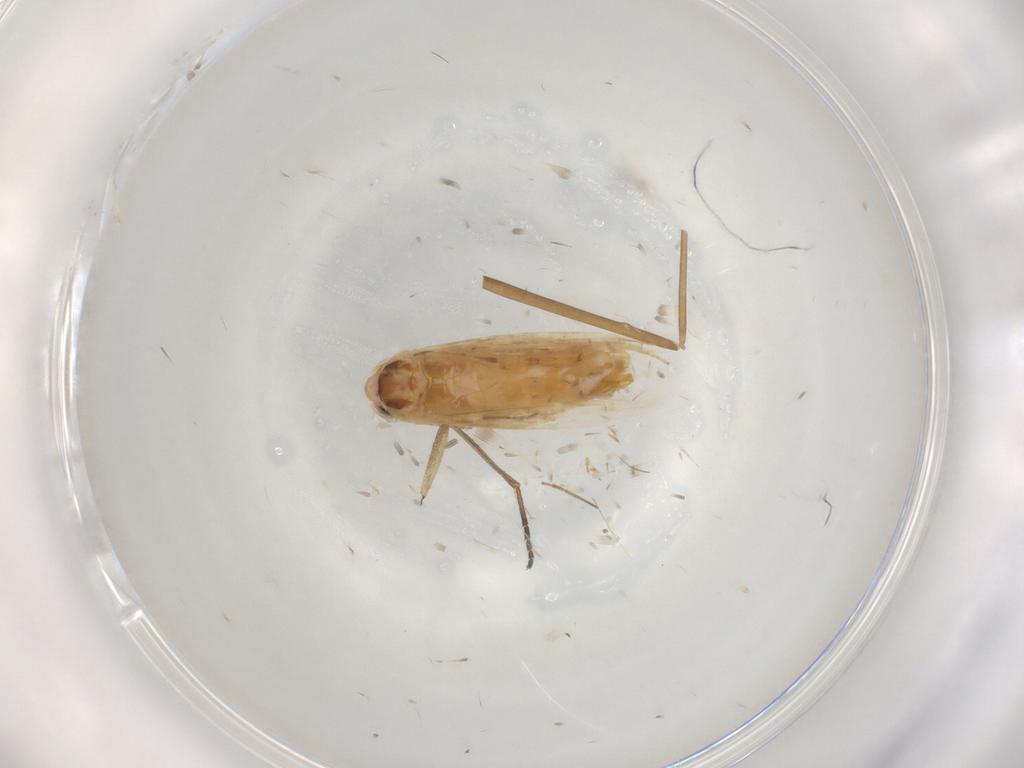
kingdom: Animalia
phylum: Arthropoda
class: Insecta
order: Lepidoptera
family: Noctuidae
